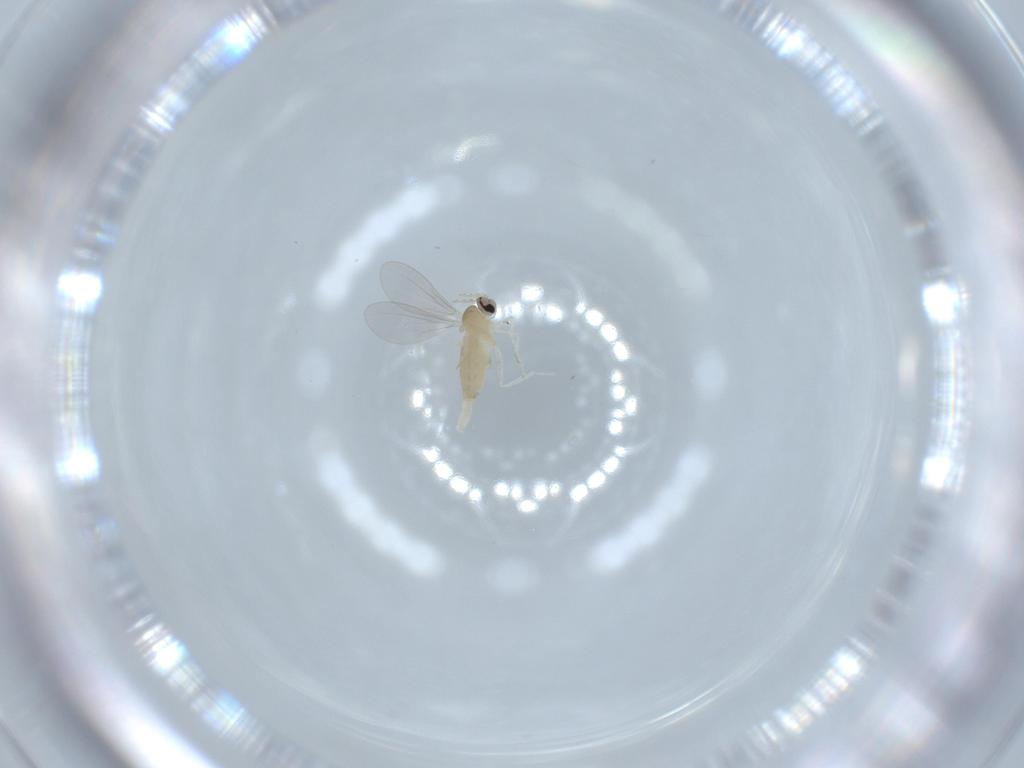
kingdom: Animalia
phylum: Arthropoda
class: Insecta
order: Diptera
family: Cecidomyiidae
